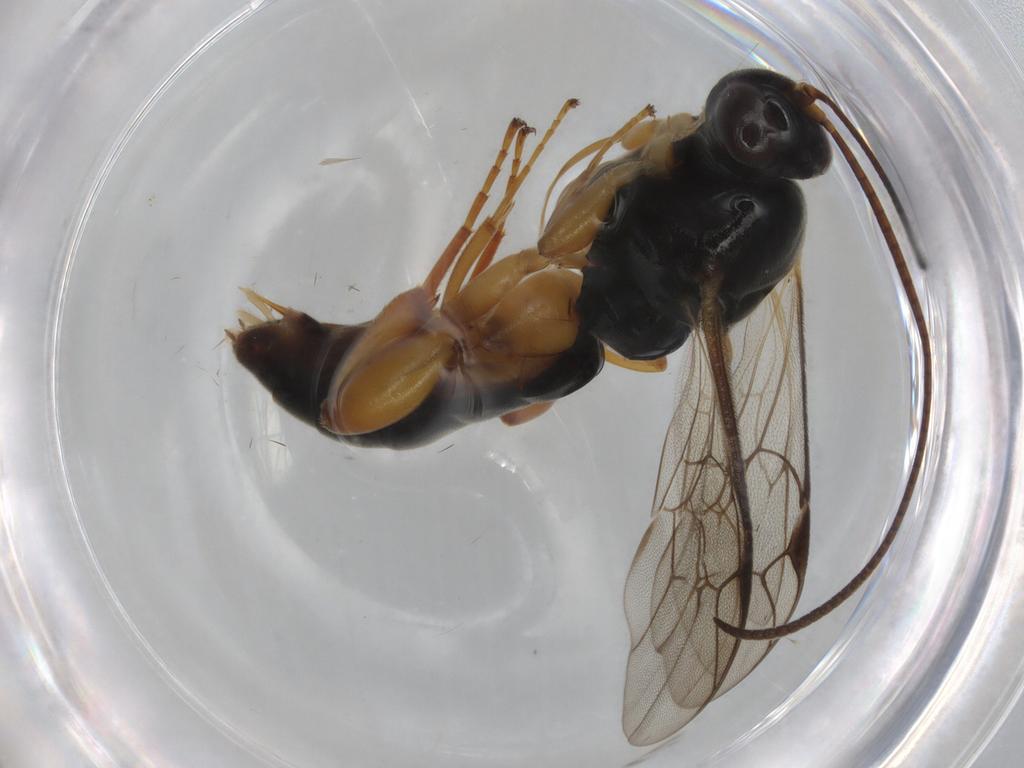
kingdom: Animalia
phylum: Arthropoda
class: Insecta
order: Hymenoptera
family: Ichneumonidae
